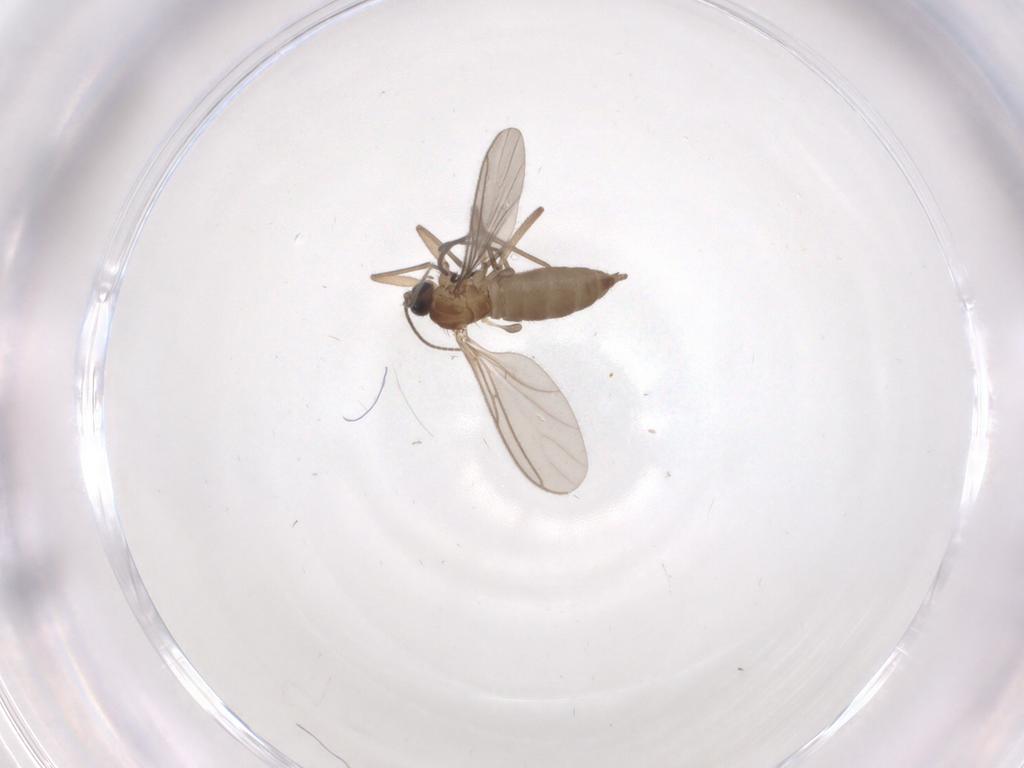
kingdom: Animalia
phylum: Arthropoda
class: Insecta
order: Diptera
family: Sciaridae
